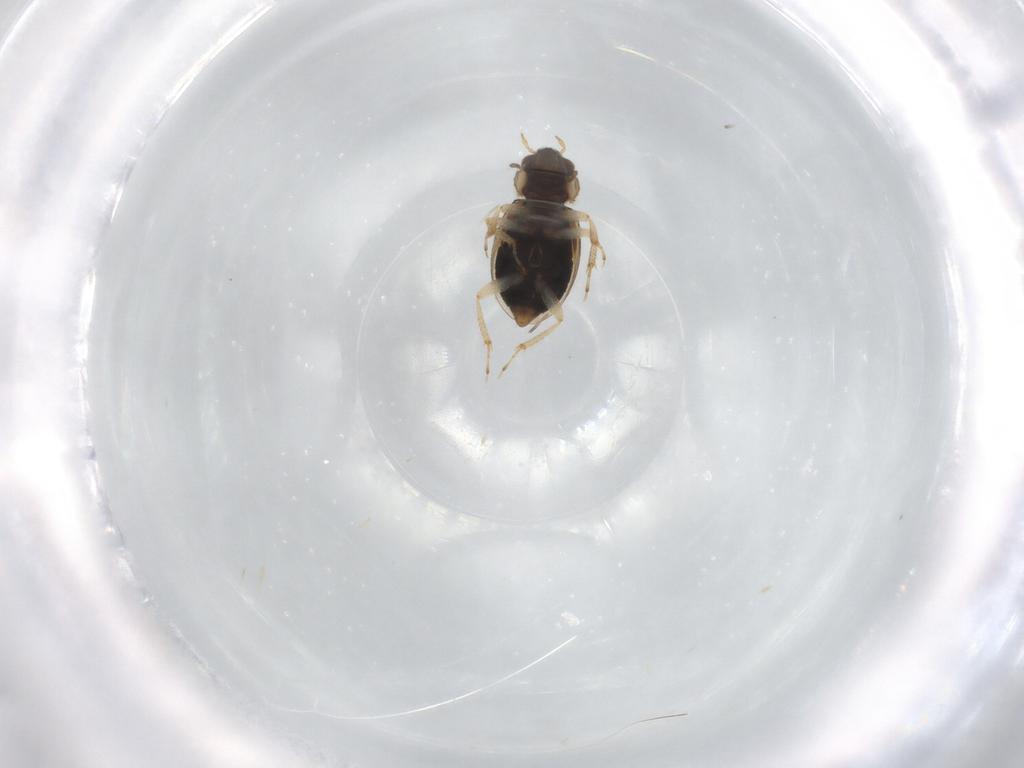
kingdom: Animalia
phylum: Arthropoda
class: Insecta
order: Coleoptera
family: Hydraenidae
